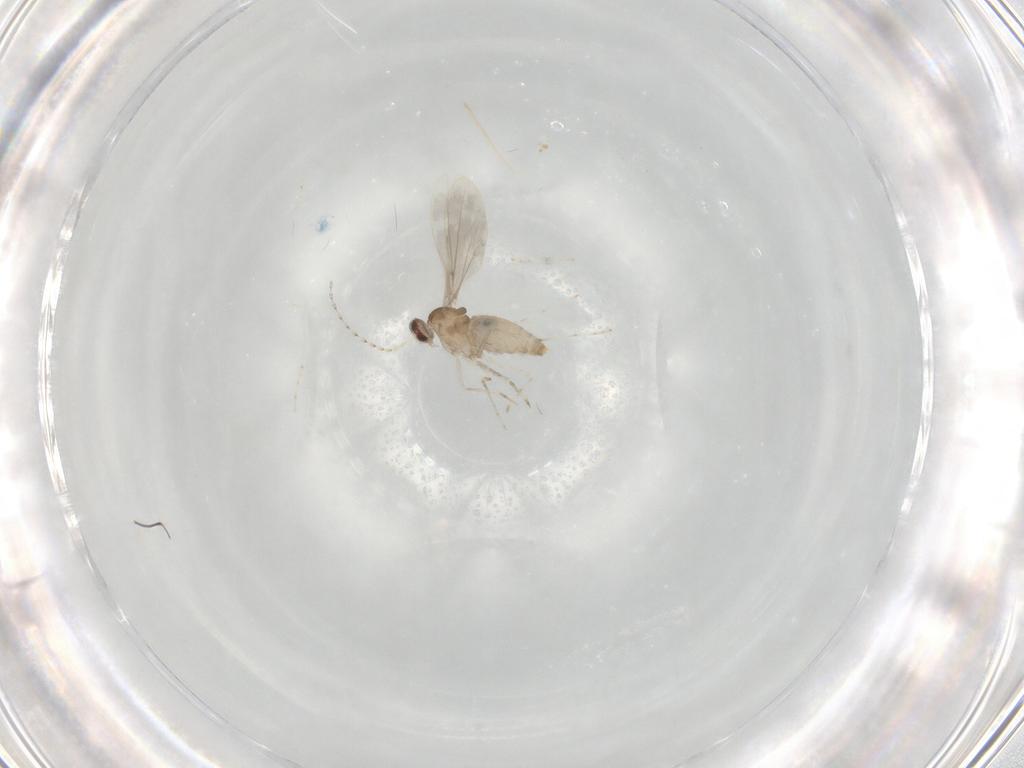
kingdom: Animalia
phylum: Arthropoda
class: Insecta
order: Diptera
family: Cecidomyiidae
